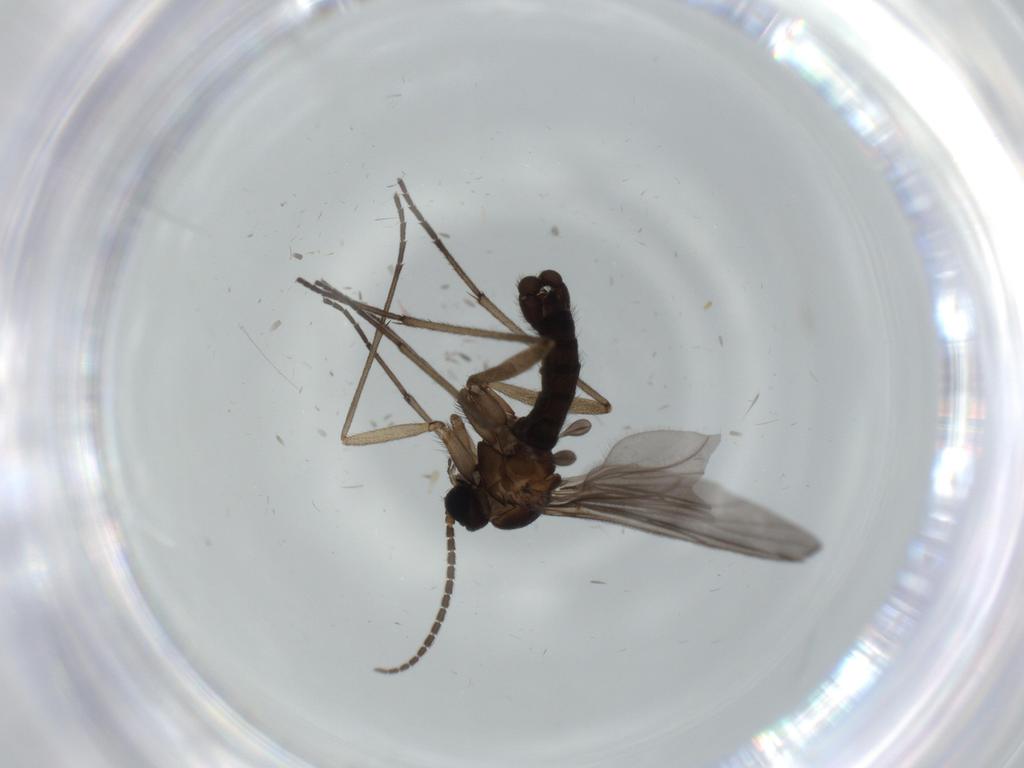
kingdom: Animalia
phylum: Arthropoda
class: Insecta
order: Diptera
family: Sciaridae
